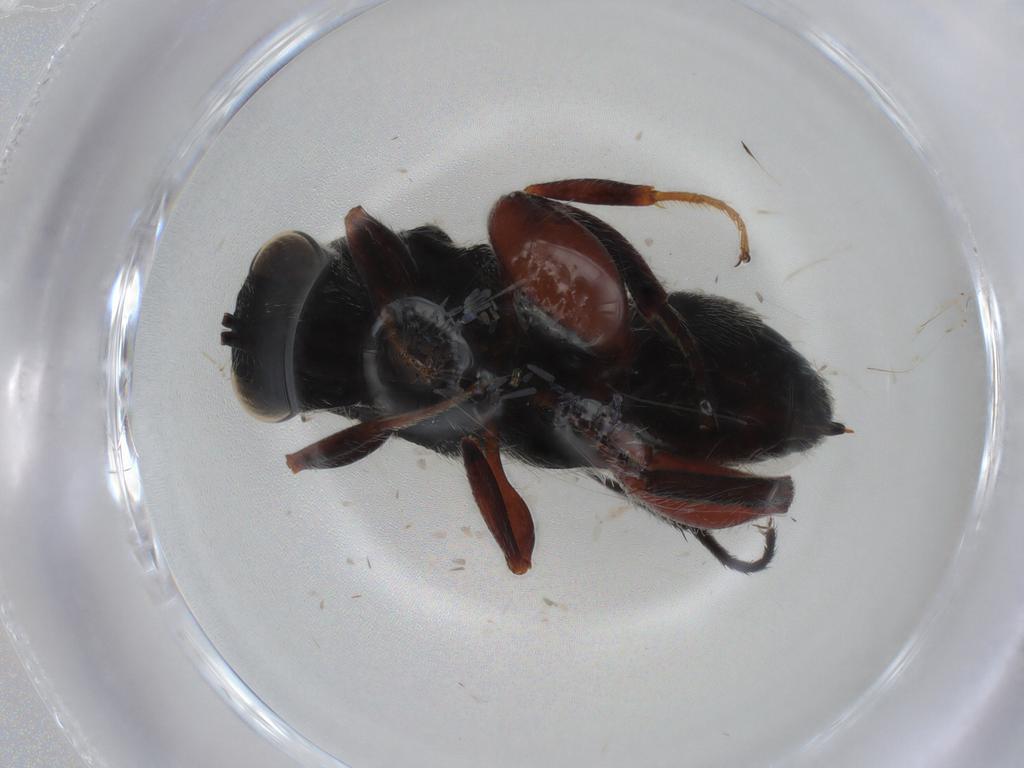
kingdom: Animalia
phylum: Arthropoda
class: Insecta
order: Hymenoptera
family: Chalcididae
